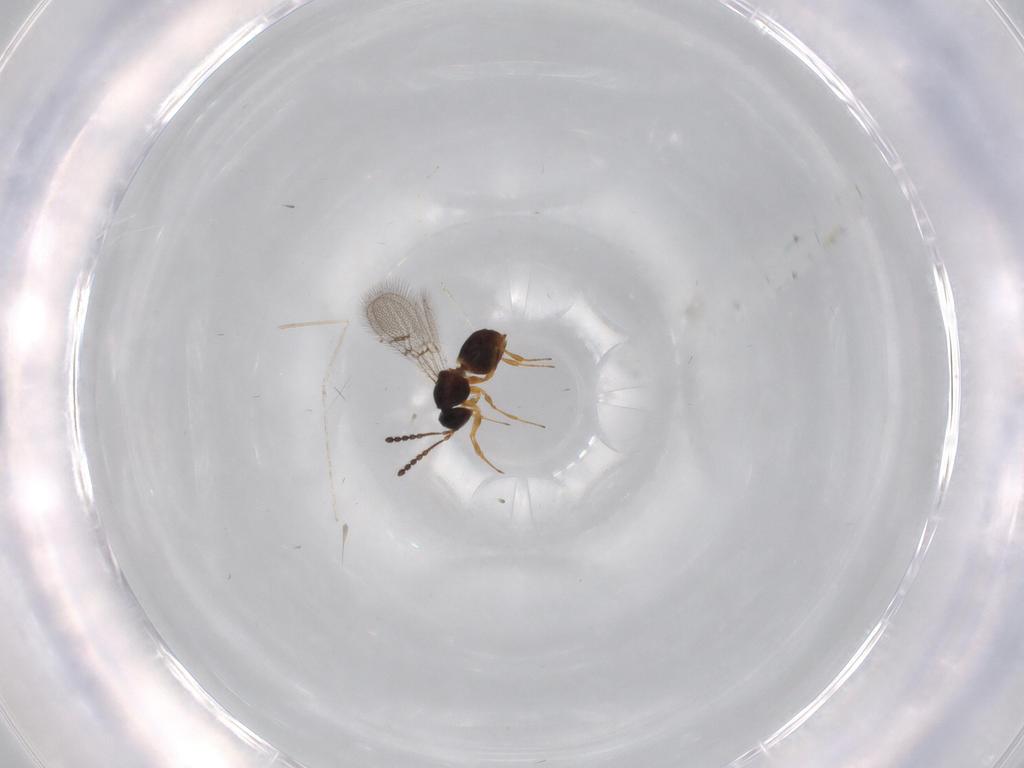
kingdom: Animalia
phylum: Arthropoda
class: Insecta
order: Hymenoptera
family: Figitidae
